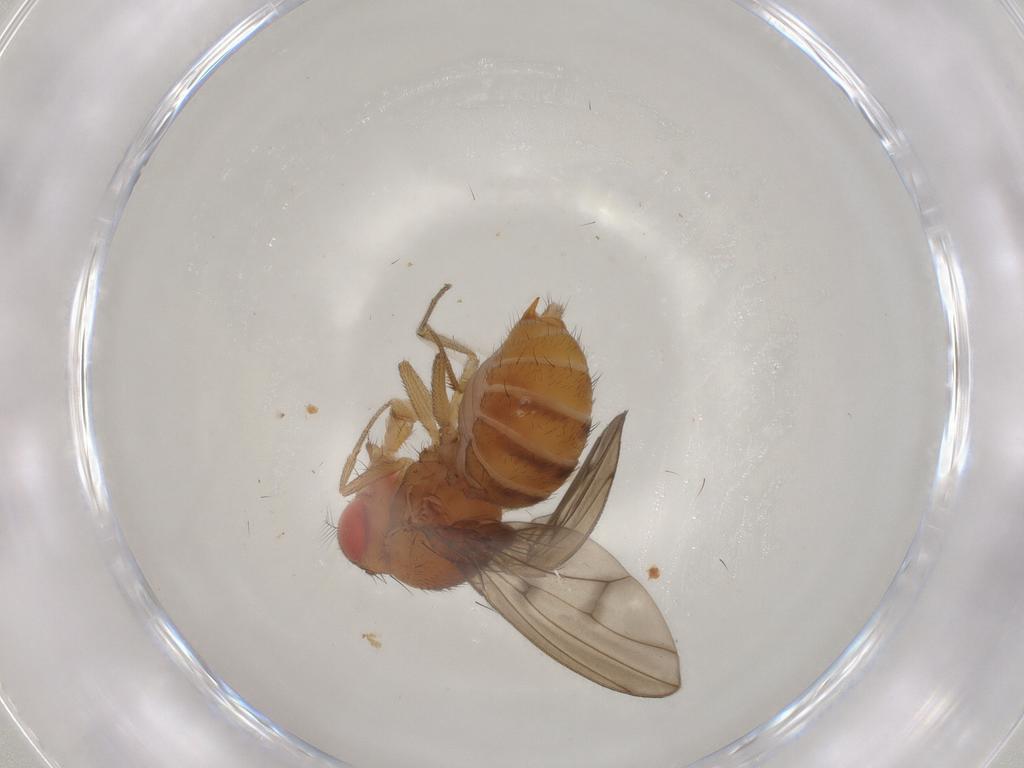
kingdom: Animalia
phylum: Arthropoda
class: Insecta
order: Diptera
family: Drosophilidae
